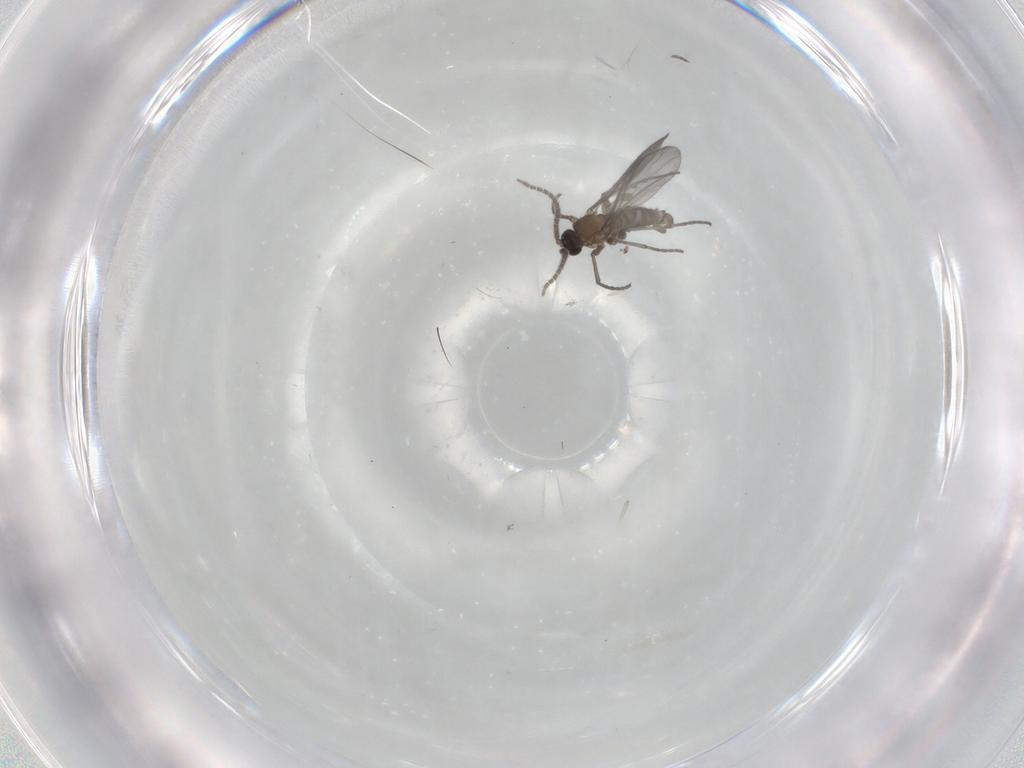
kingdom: Animalia
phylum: Arthropoda
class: Insecta
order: Diptera
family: Sciaridae
